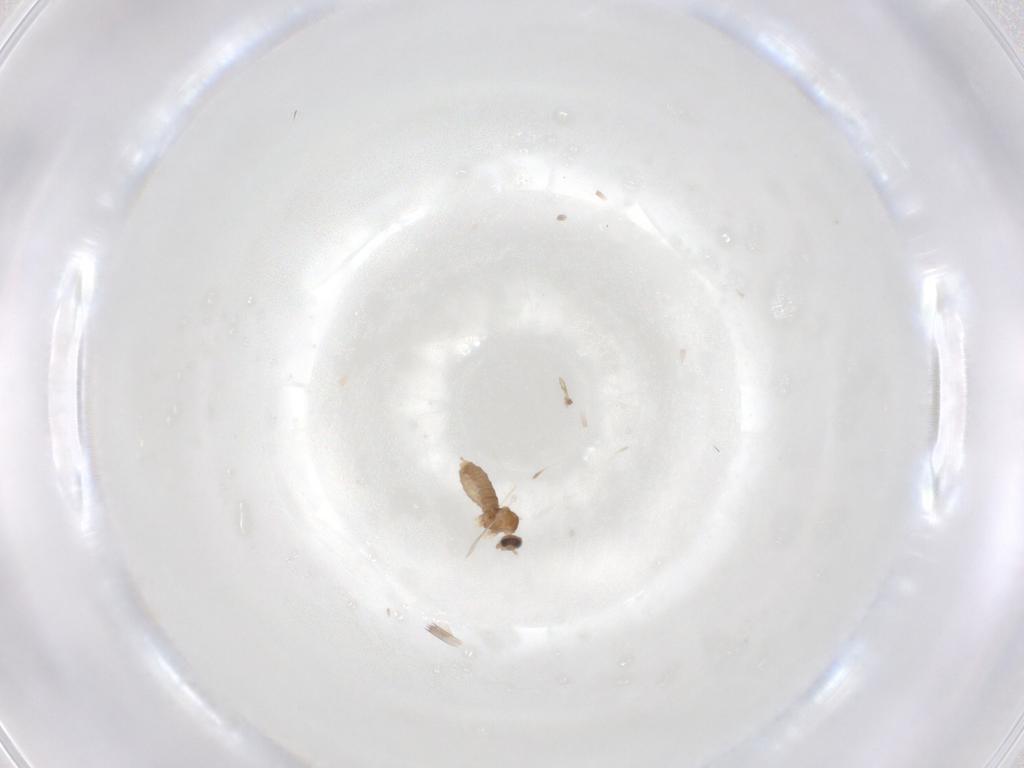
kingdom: Animalia
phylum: Arthropoda
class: Insecta
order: Diptera
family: Cecidomyiidae
